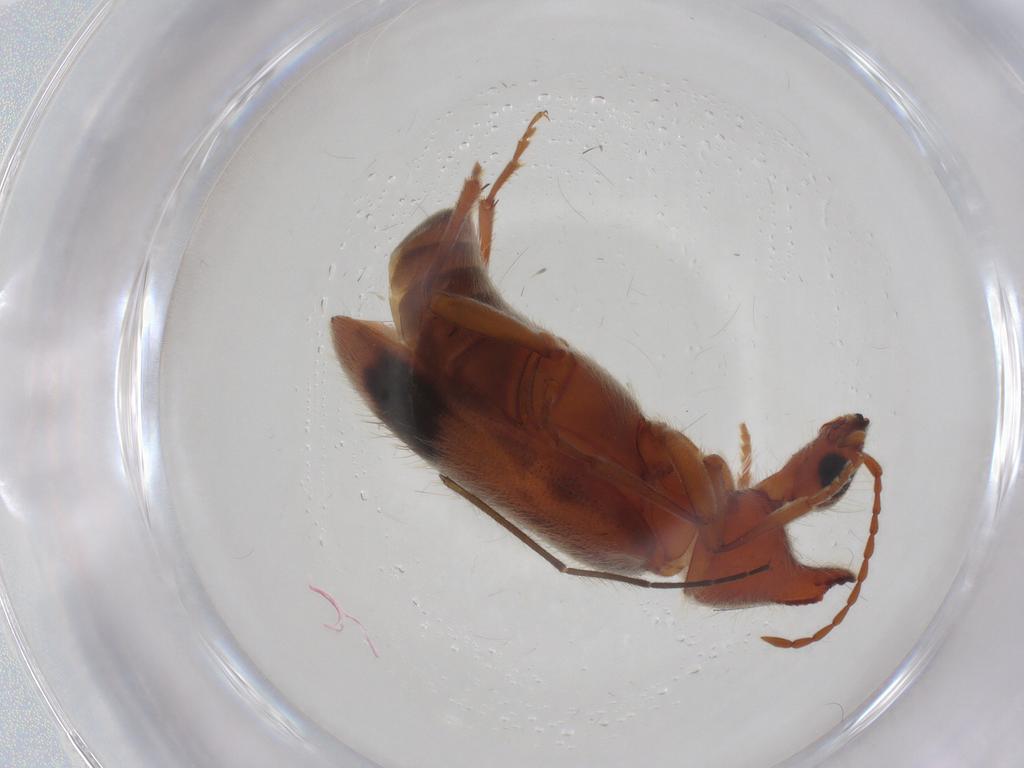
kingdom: Animalia
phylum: Arthropoda
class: Insecta
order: Coleoptera
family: Anthicidae
